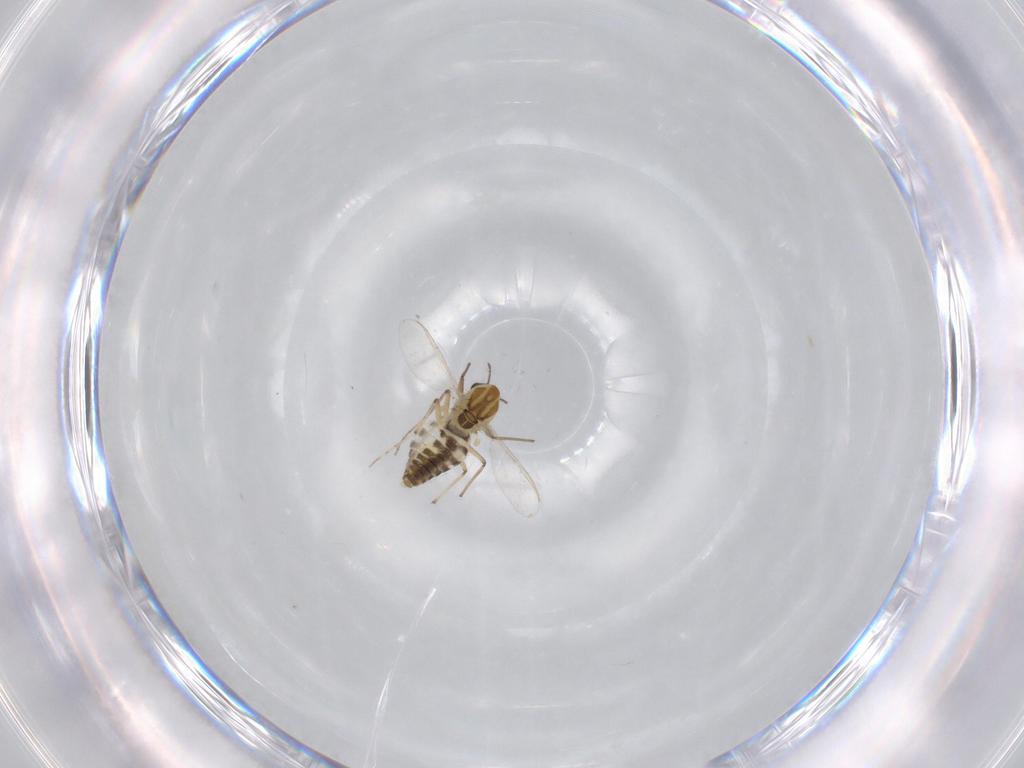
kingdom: Animalia
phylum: Arthropoda
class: Insecta
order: Diptera
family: Chironomidae
